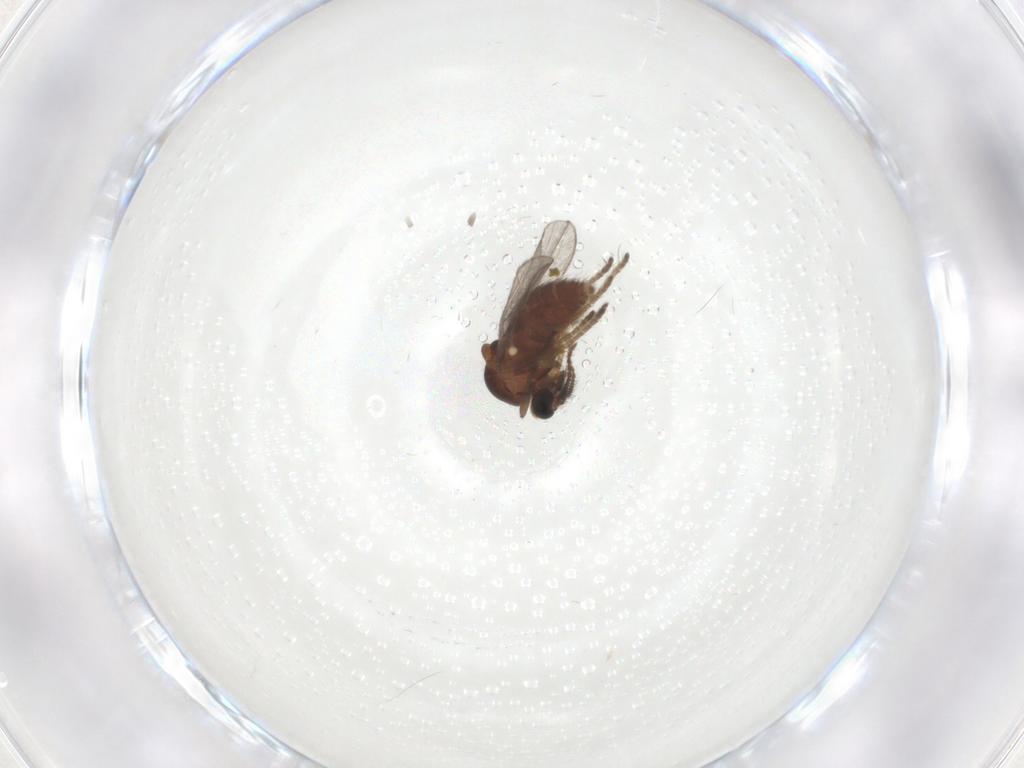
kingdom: Animalia
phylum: Arthropoda
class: Insecta
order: Diptera
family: Ceratopogonidae
